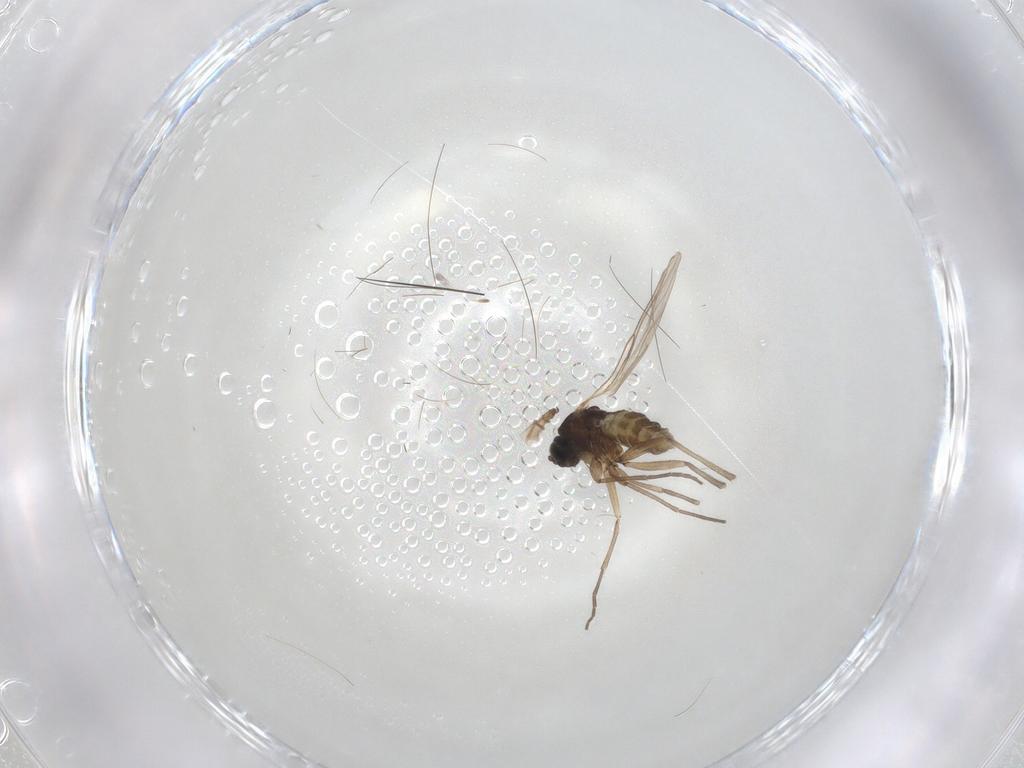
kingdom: Animalia
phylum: Arthropoda
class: Insecta
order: Diptera
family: Sciaridae
